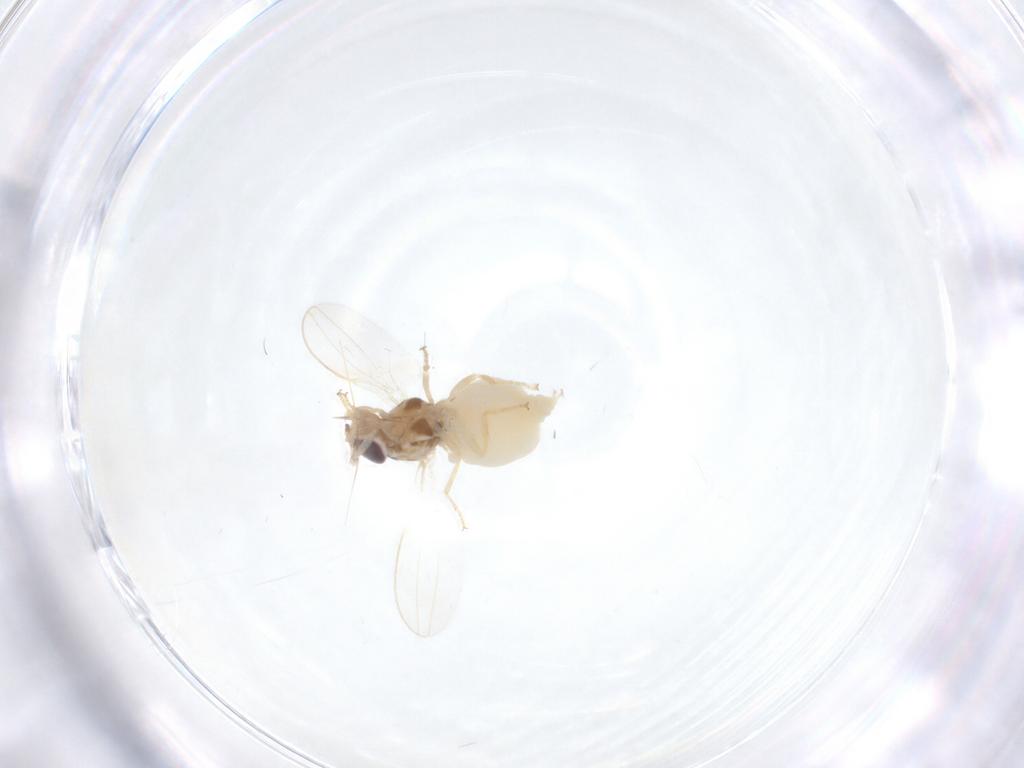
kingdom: Animalia
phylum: Arthropoda
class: Insecta
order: Diptera
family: Chloropidae
